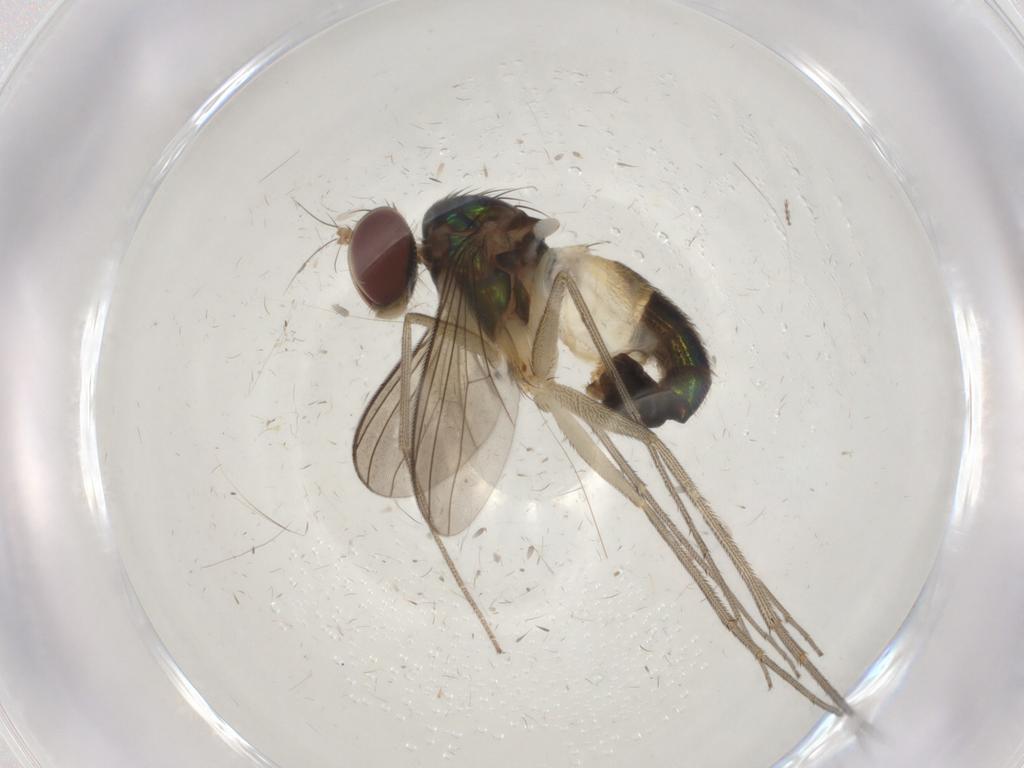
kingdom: Animalia
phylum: Arthropoda
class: Insecta
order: Diptera
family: Dolichopodidae
